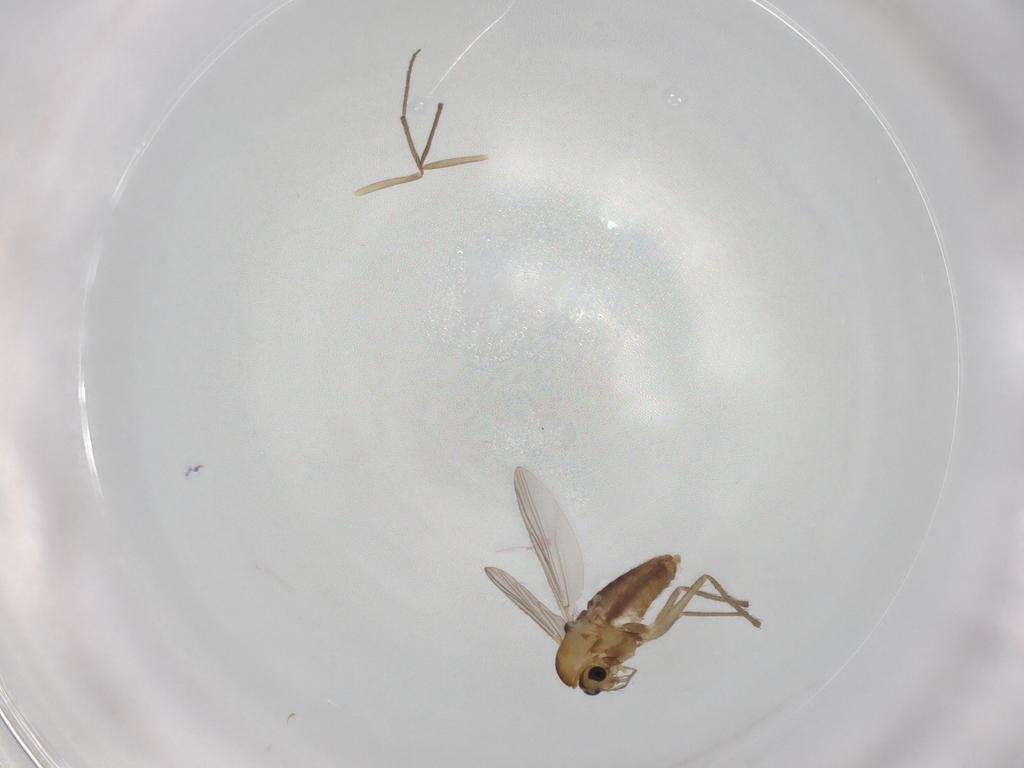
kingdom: Animalia
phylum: Arthropoda
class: Insecta
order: Diptera
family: Chironomidae
